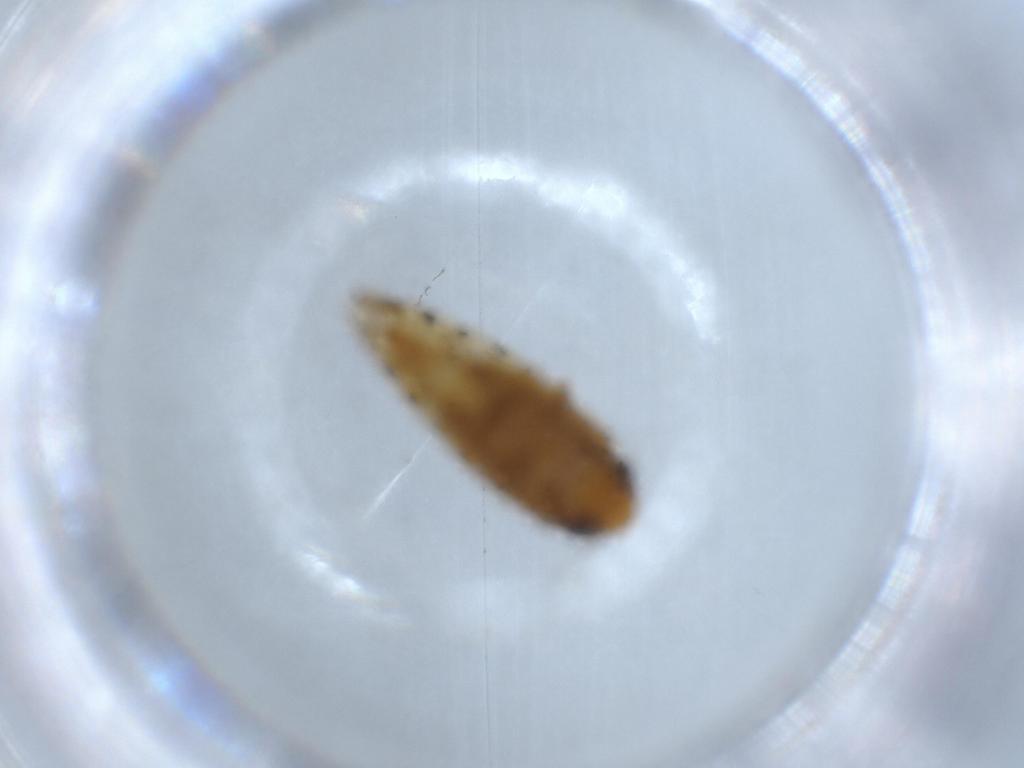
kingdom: Animalia
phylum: Arthropoda
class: Insecta
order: Hemiptera
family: Cicadellidae
